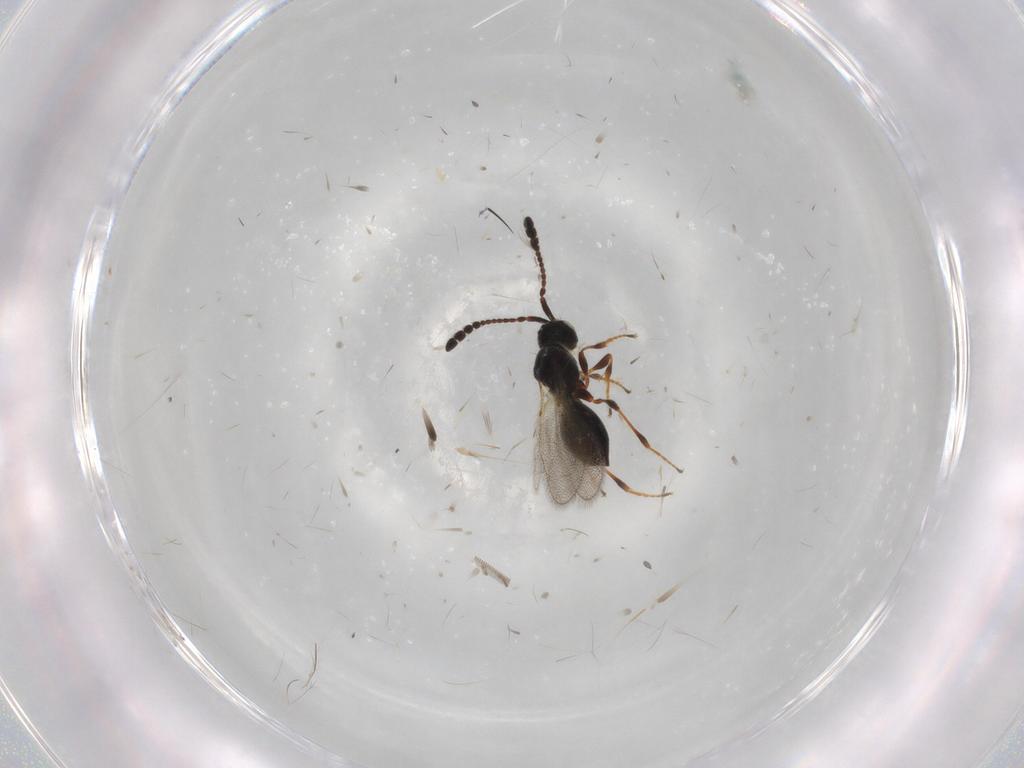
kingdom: Animalia
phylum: Arthropoda
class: Insecta
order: Hymenoptera
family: Diapriidae
